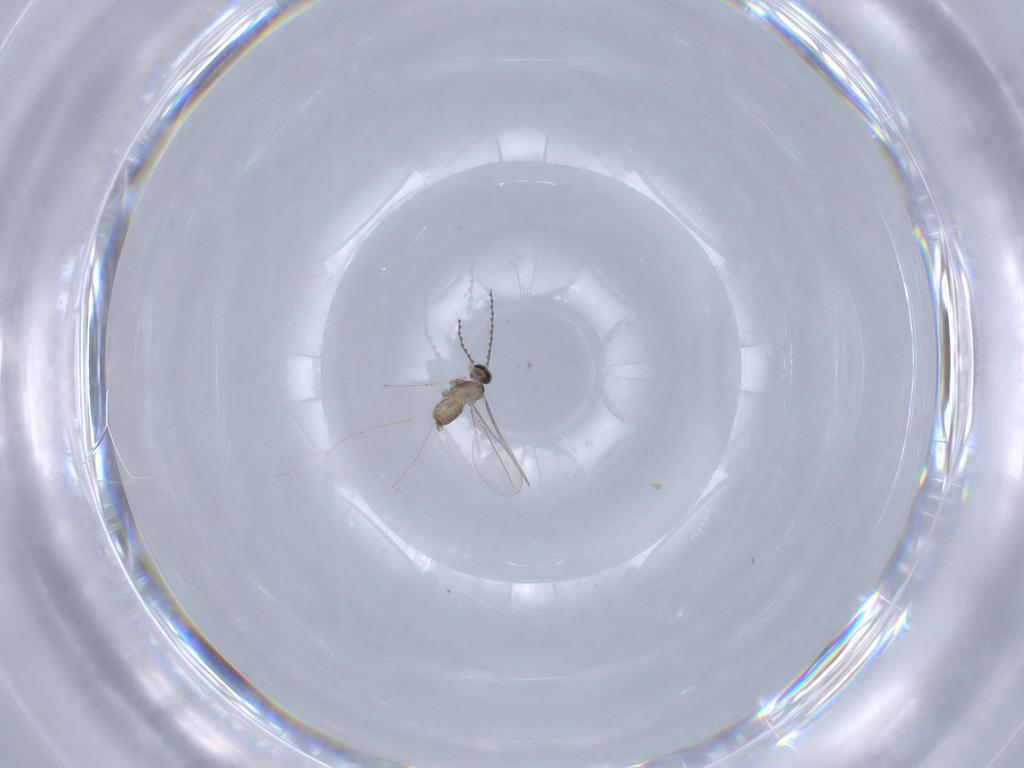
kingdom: Animalia
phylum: Arthropoda
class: Insecta
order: Diptera
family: Cecidomyiidae
